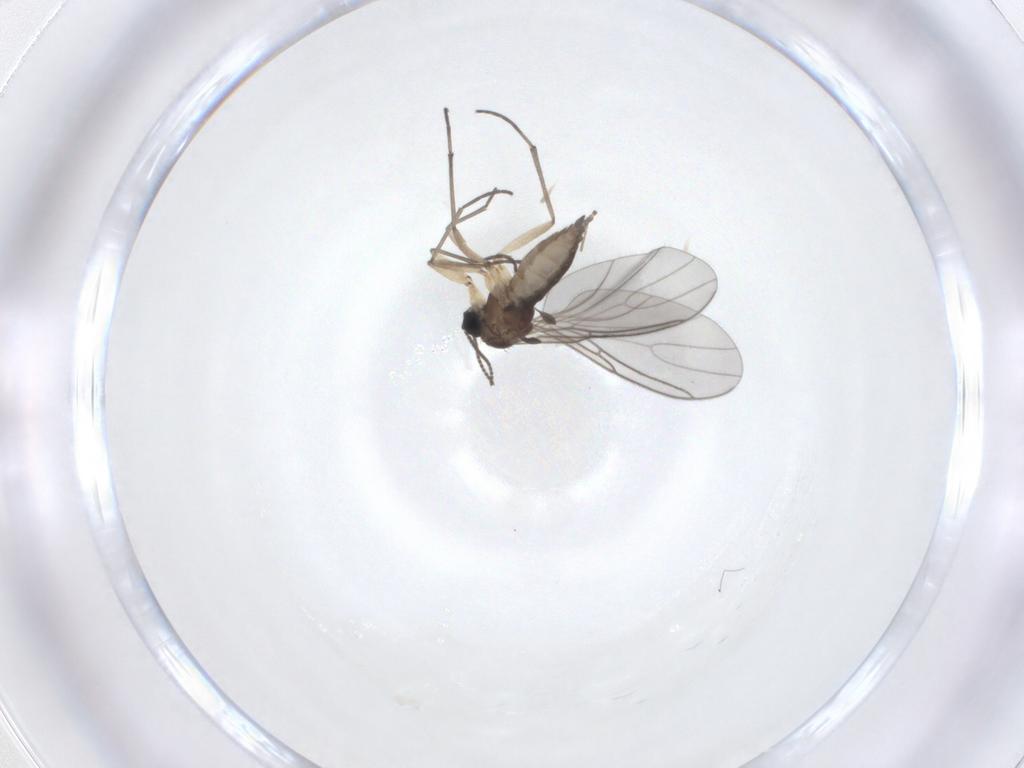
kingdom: Animalia
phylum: Arthropoda
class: Insecta
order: Diptera
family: Sciaridae
